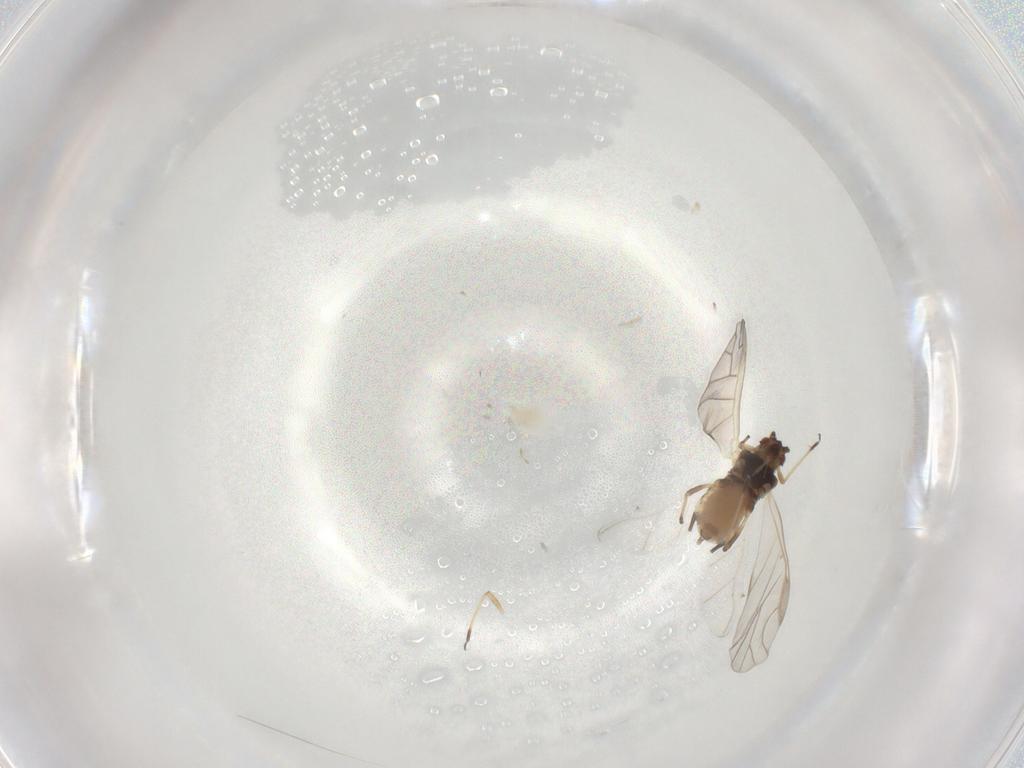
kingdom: Animalia
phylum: Arthropoda
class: Insecta
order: Hemiptera
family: Aphididae
